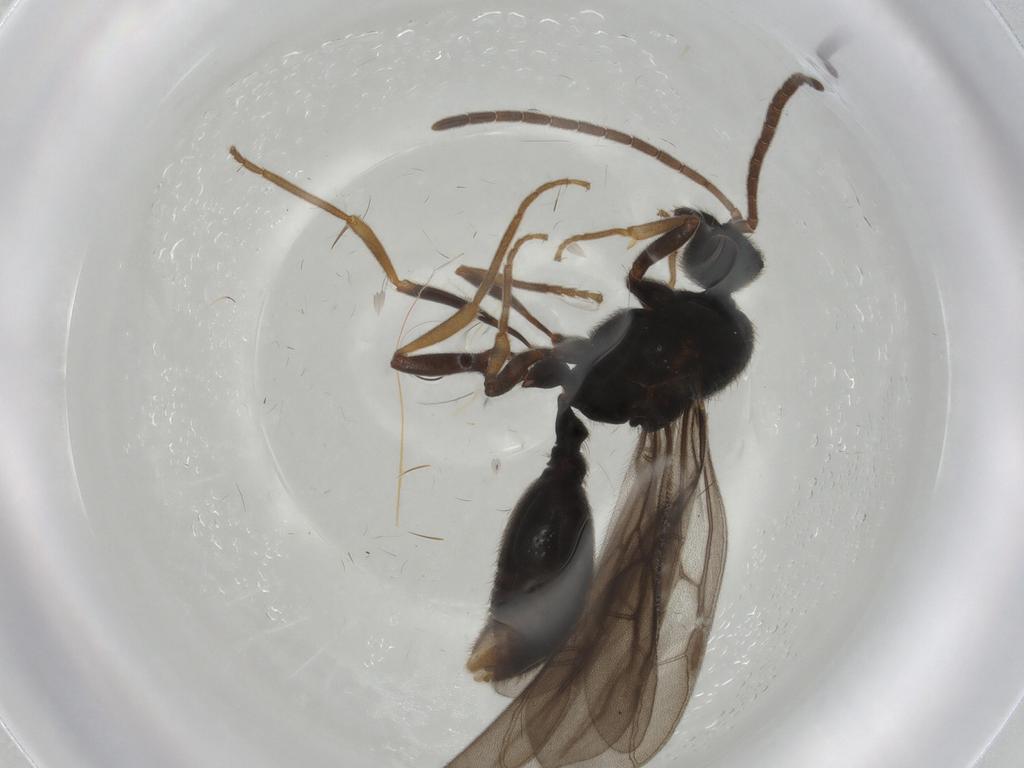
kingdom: Animalia
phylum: Arthropoda
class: Insecta
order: Hymenoptera
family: Formicidae
